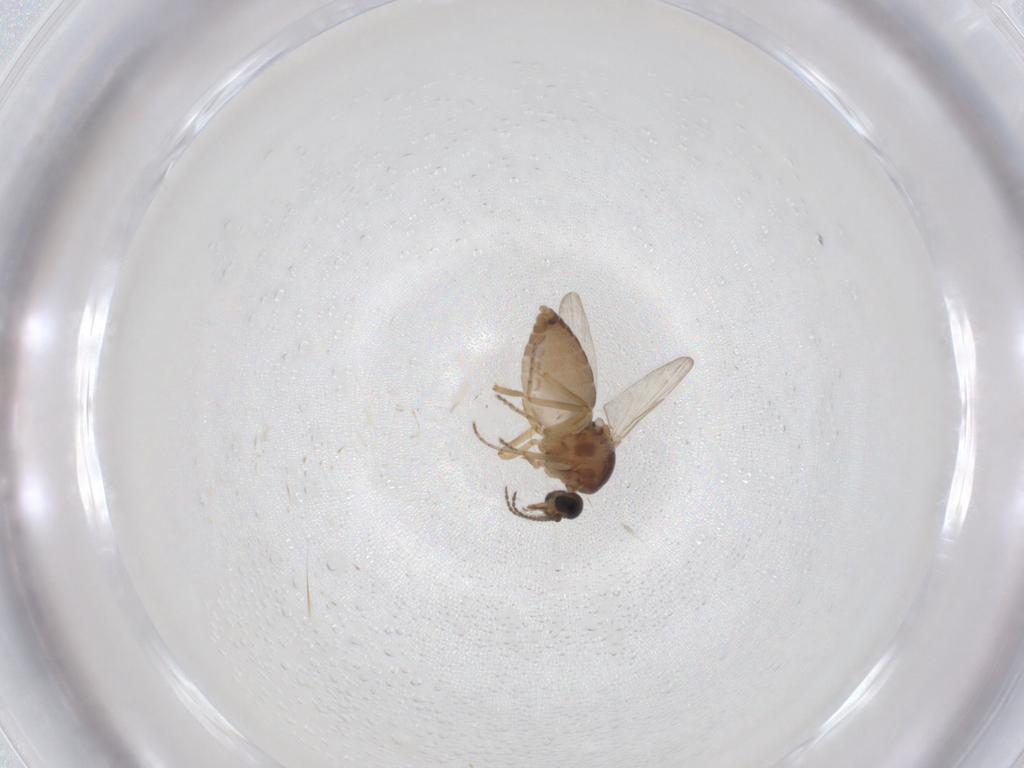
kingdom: Animalia
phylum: Arthropoda
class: Insecta
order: Diptera
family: Ceratopogonidae
